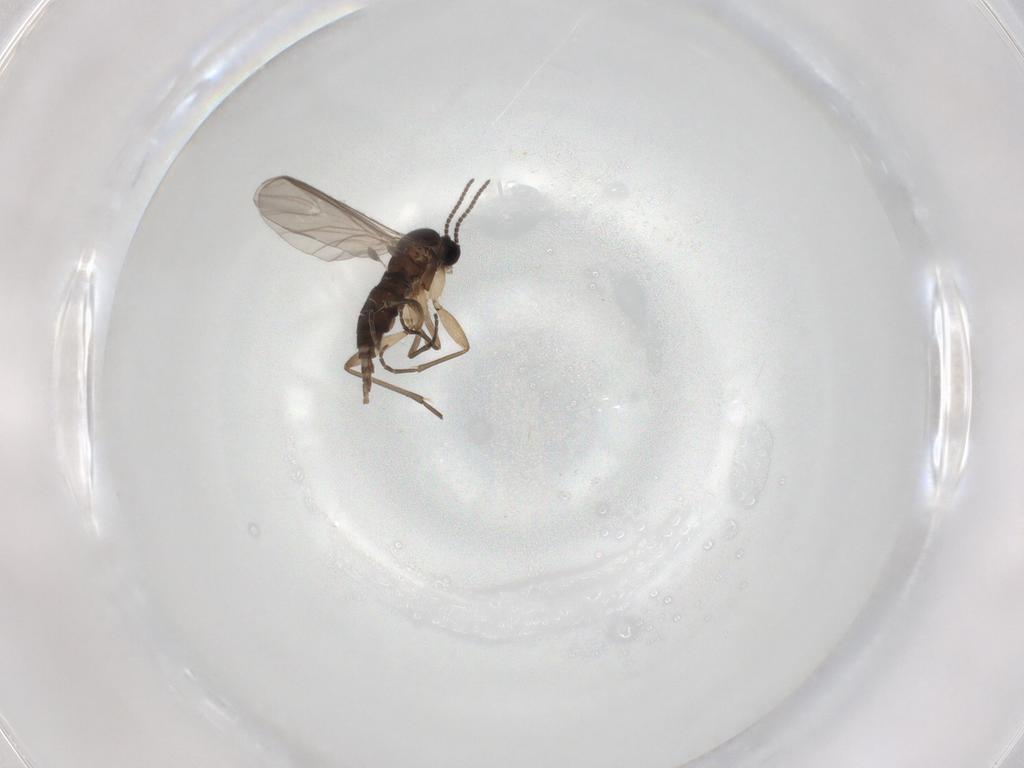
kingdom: Animalia
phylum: Arthropoda
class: Insecta
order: Diptera
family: Sciaridae
